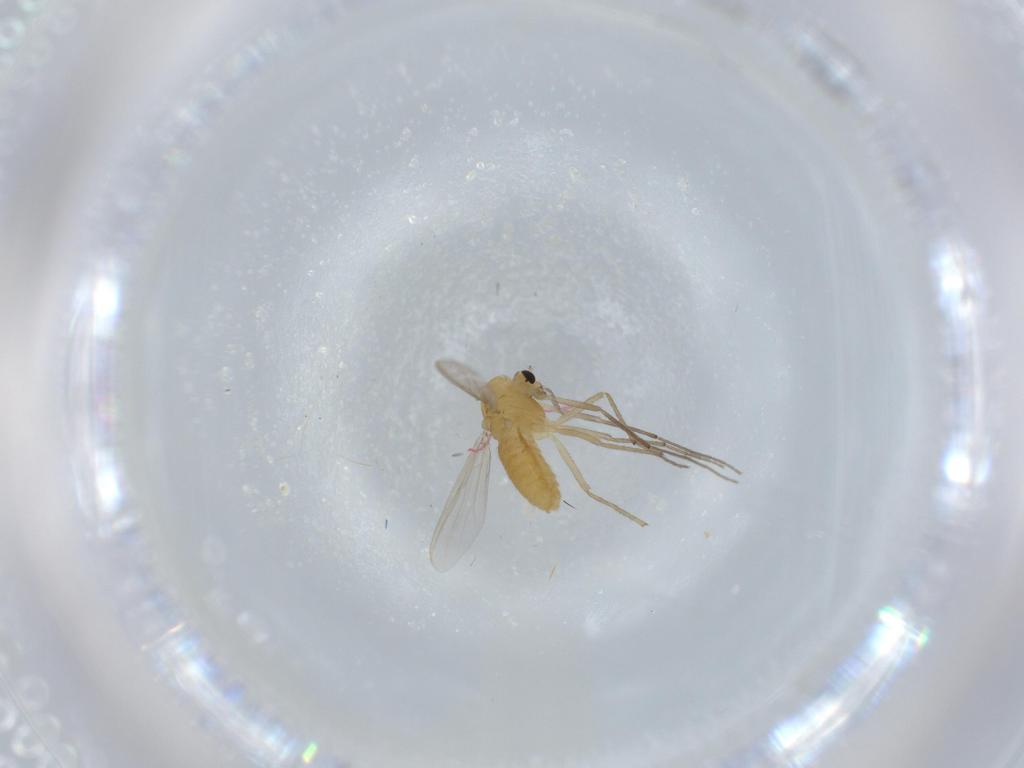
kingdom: Animalia
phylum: Arthropoda
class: Insecta
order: Diptera
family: Chironomidae
